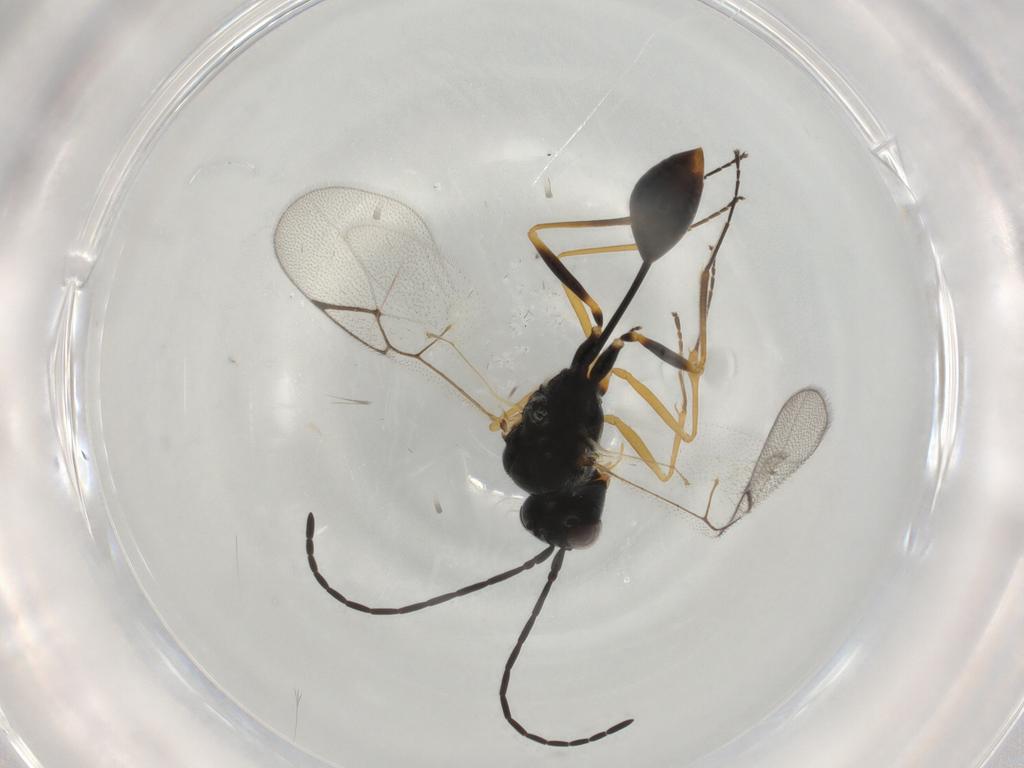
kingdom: Animalia
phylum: Arthropoda
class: Insecta
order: Hymenoptera
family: Figitidae
